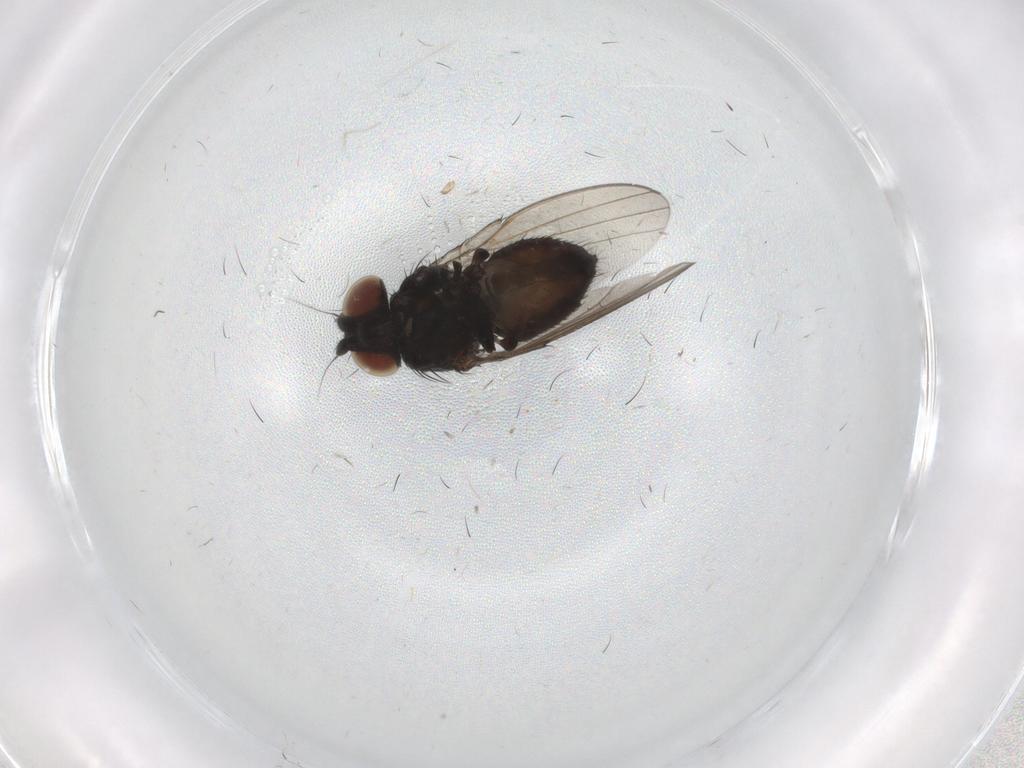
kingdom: Animalia
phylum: Arthropoda
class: Insecta
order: Diptera
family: Milichiidae
